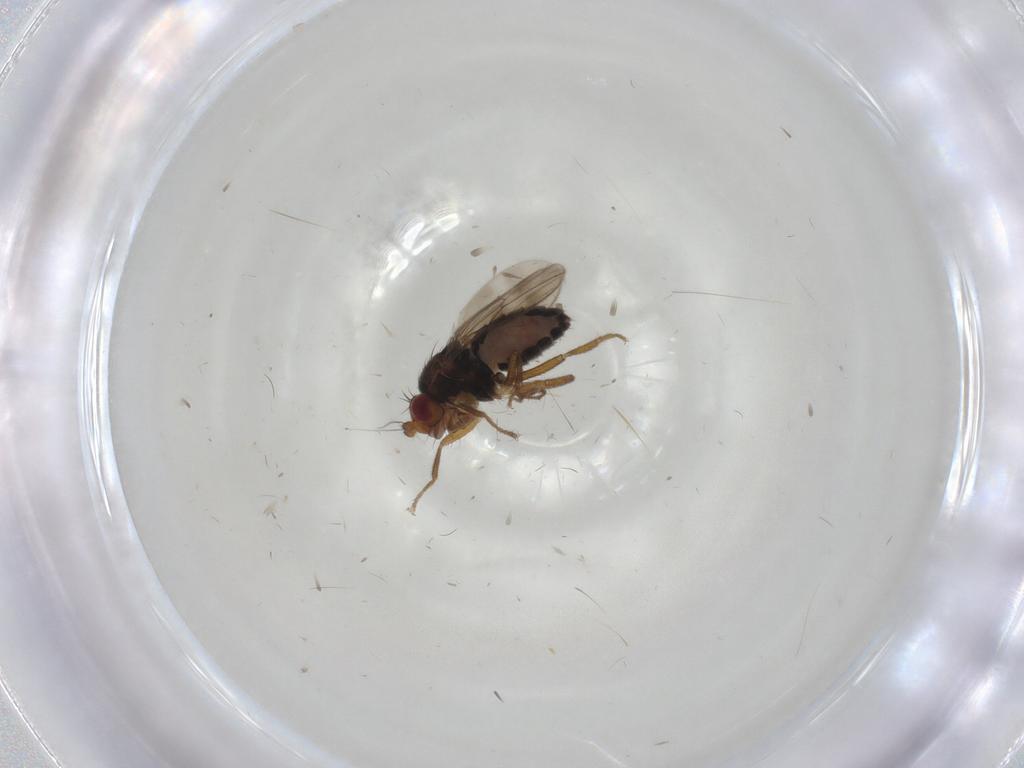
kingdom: Animalia
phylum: Arthropoda
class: Insecta
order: Diptera
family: Sphaeroceridae
